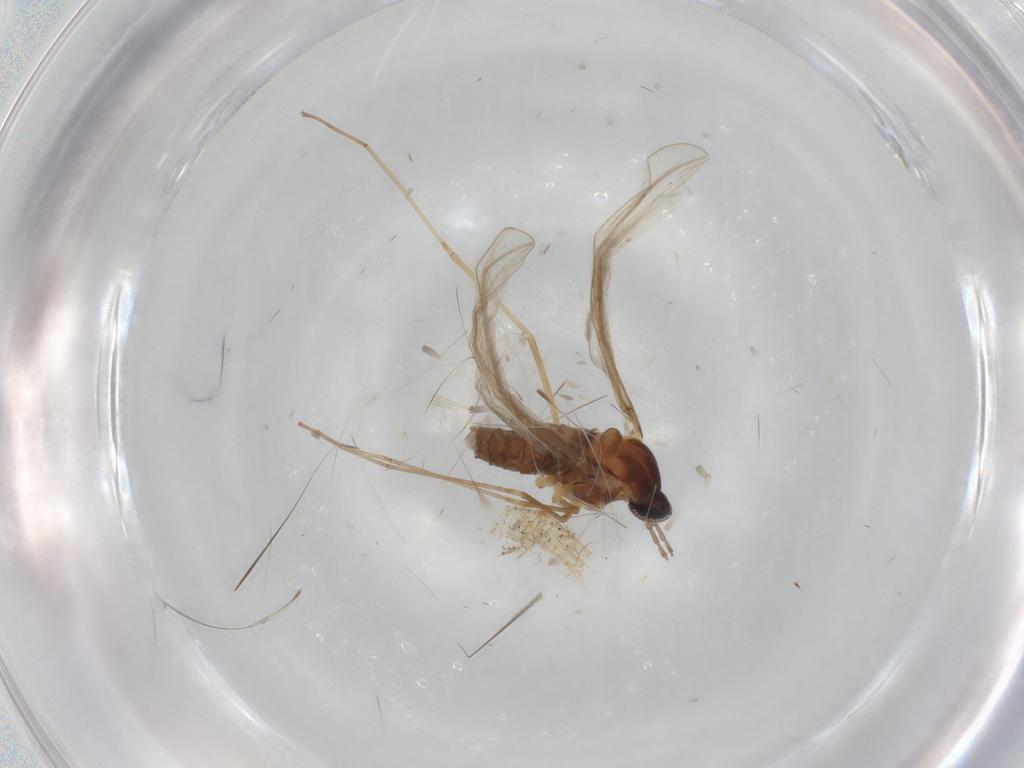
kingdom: Animalia
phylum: Arthropoda
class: Insecta
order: Diptera
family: Cecidomyiidae
